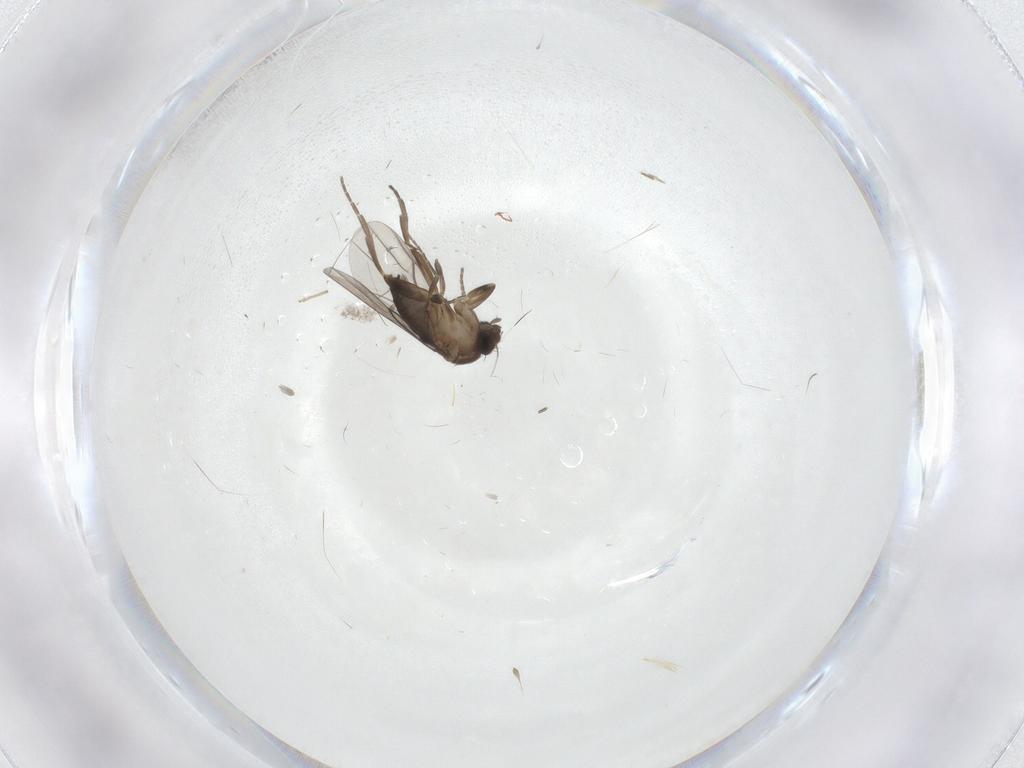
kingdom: Animalia
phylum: Arthropoda
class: Insecta
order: Diptera
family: Phoridae
